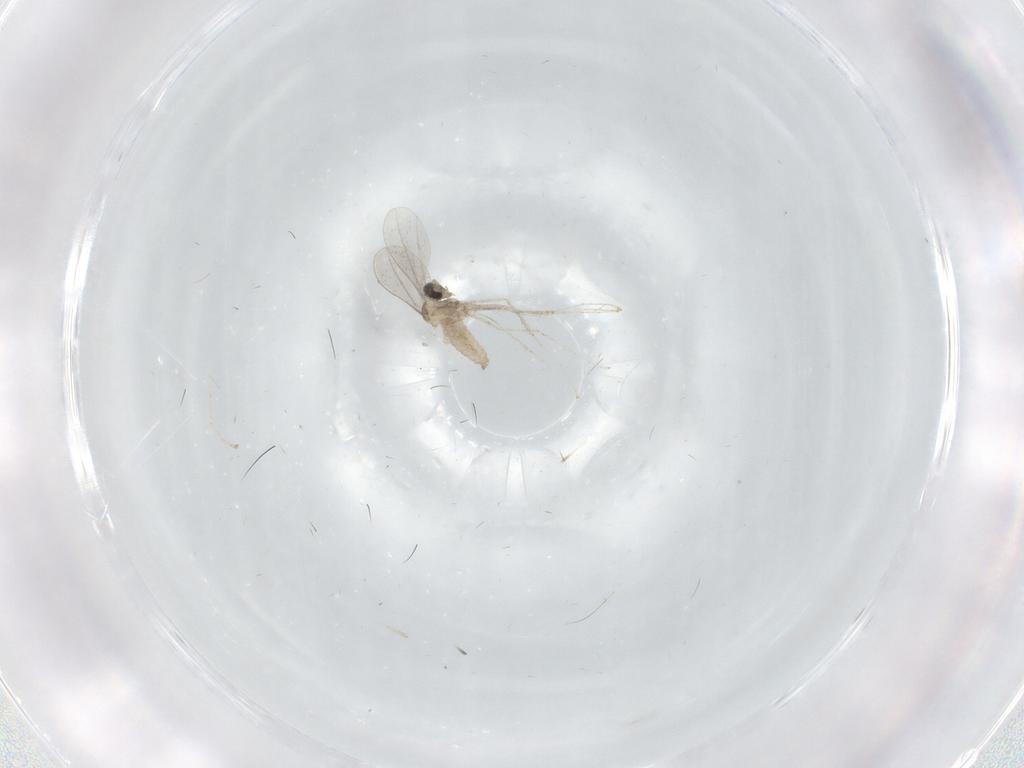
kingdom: Animalia
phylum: Arthropoda
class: Insecta
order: Diptera
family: Cecidomyiidae
